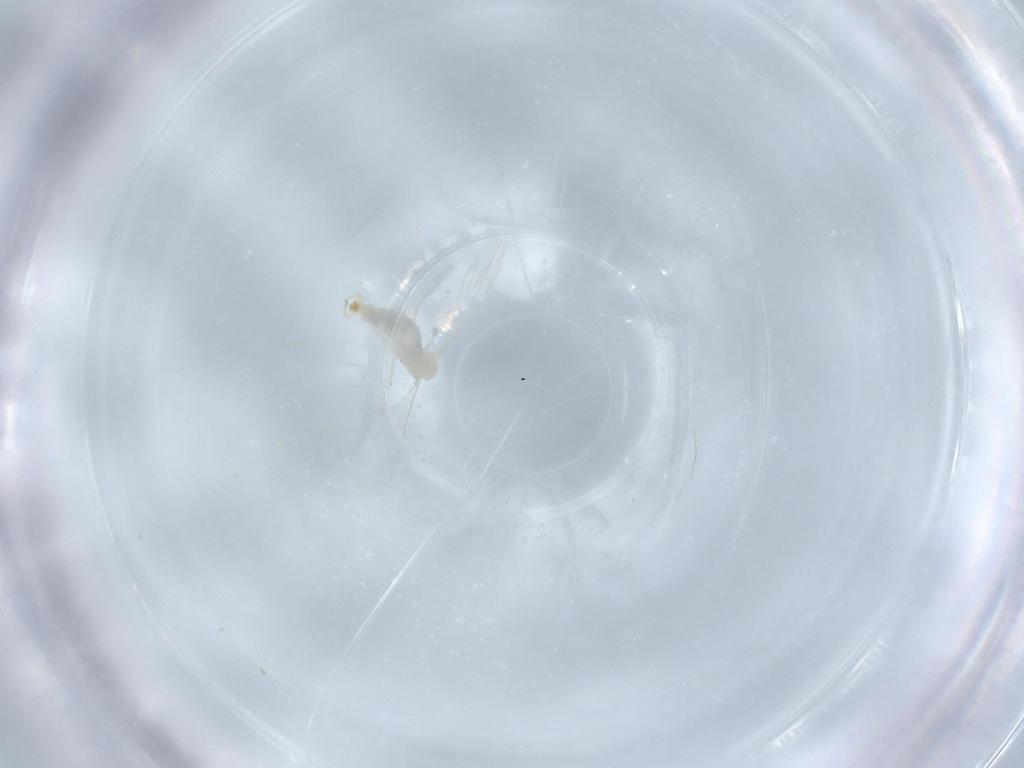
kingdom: Animalia
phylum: Arthropoda
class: Insecta
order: Diptera
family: Cecidomyiidae
